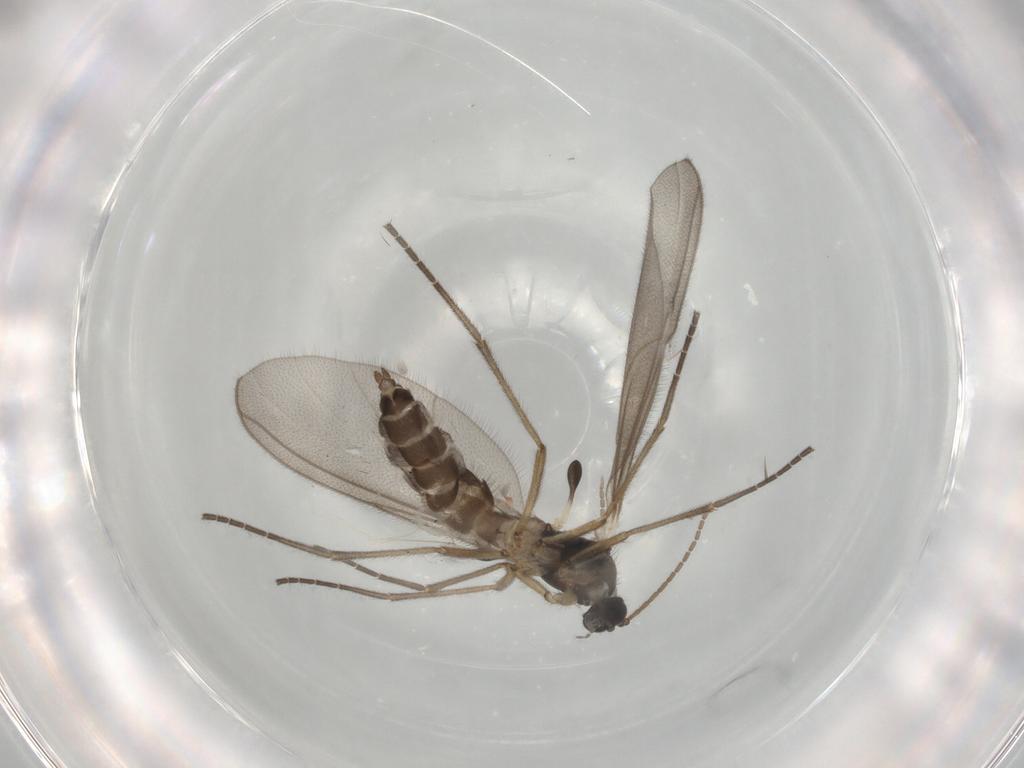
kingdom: Animalia
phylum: Arthropoda
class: Insecta
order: Diptera
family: Mycetophilidae
